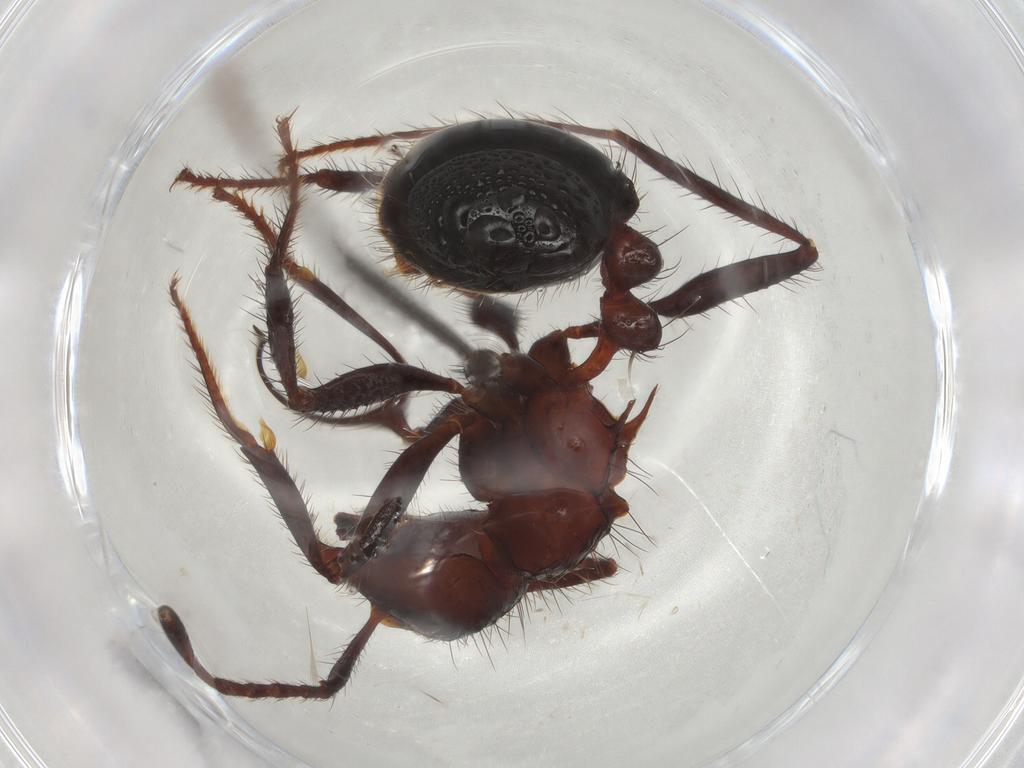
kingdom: Animalia
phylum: Arthropoda
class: Insecta
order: Hymenoptera
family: Formicidae
